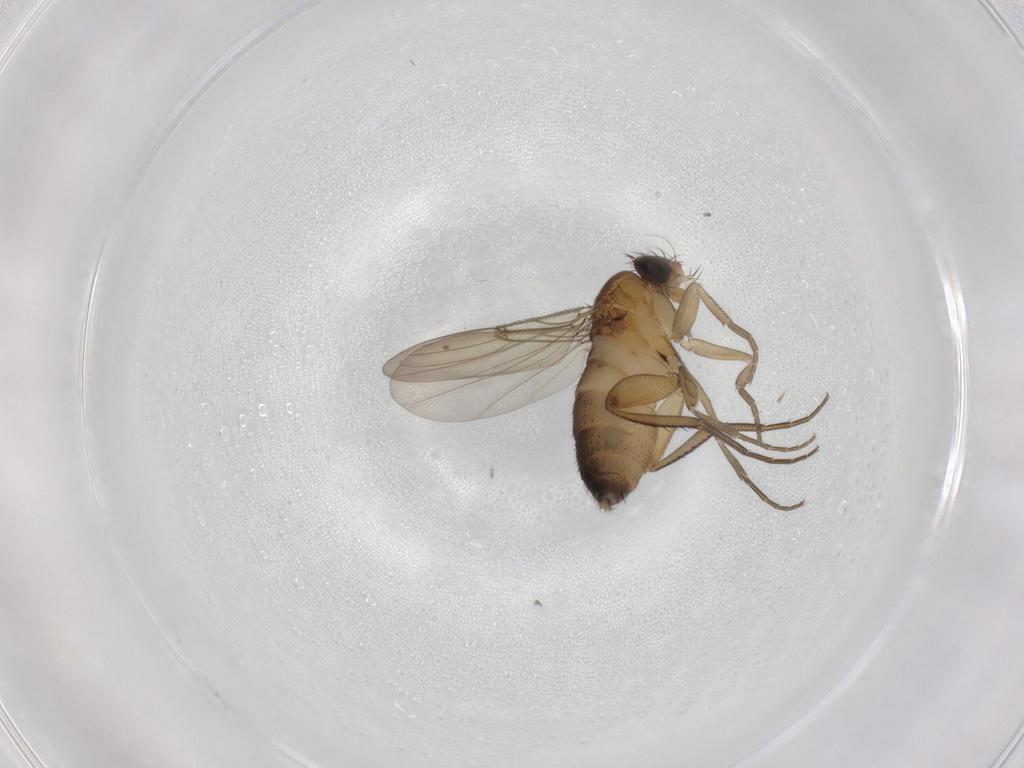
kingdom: Animalia
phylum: Arthropoda
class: Insecta
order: Diptera
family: Phoridae
